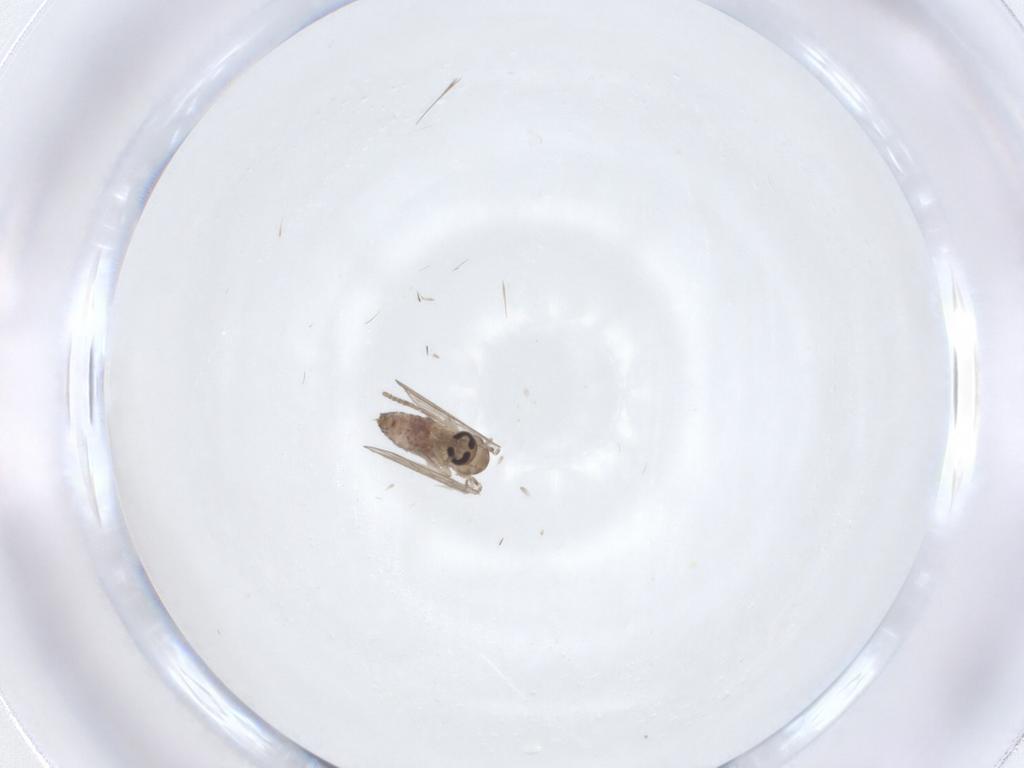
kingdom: Animalia
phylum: Arthropoda
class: Insecta
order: Diptera
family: Psychodidae
